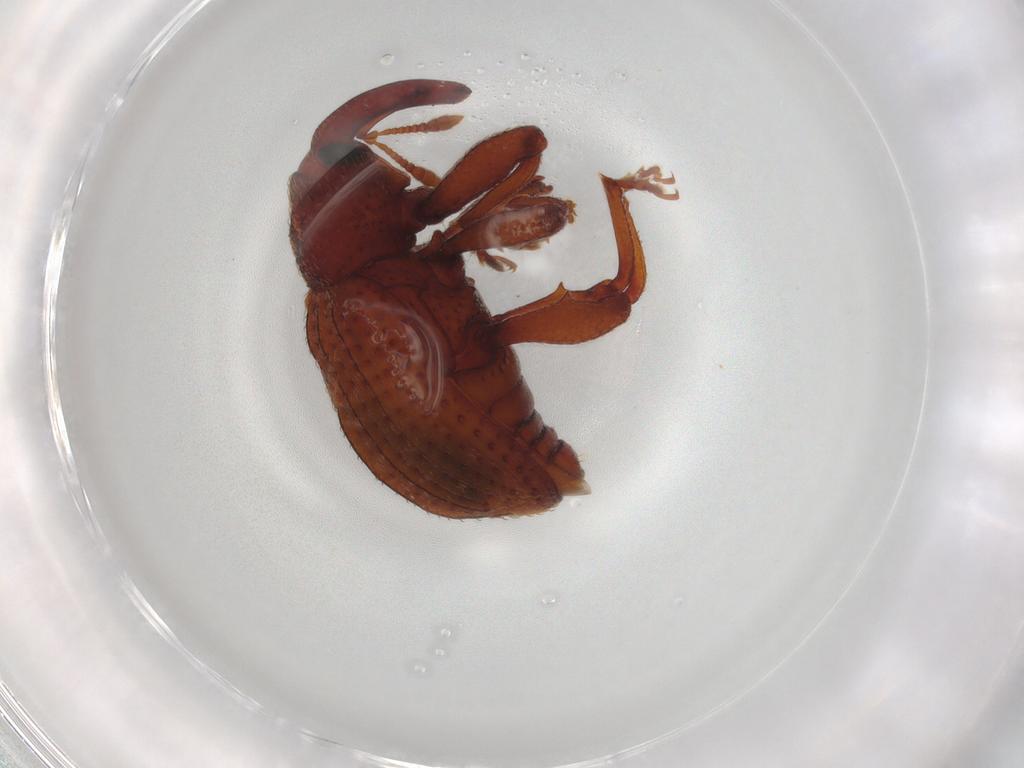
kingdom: Animalia
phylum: Arthropoda
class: Insecta
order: Coleoptera
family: Curculionidae
